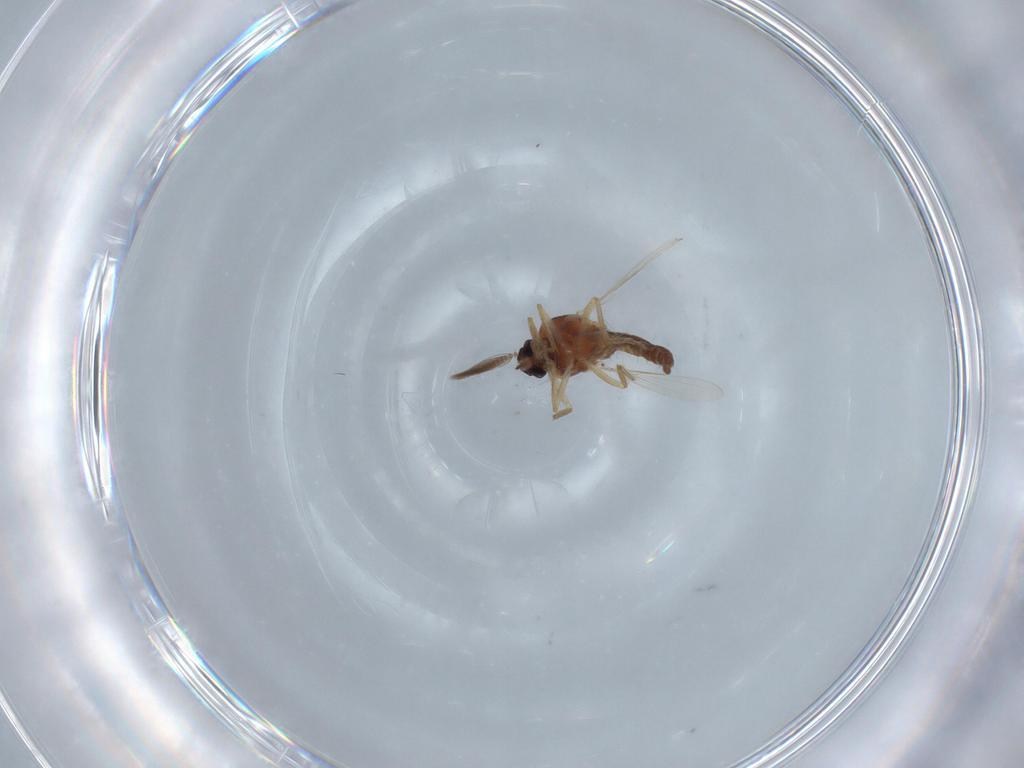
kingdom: Animalia
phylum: Arthropoda
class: Insecta
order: Diptera
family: Ceratopogonidae
